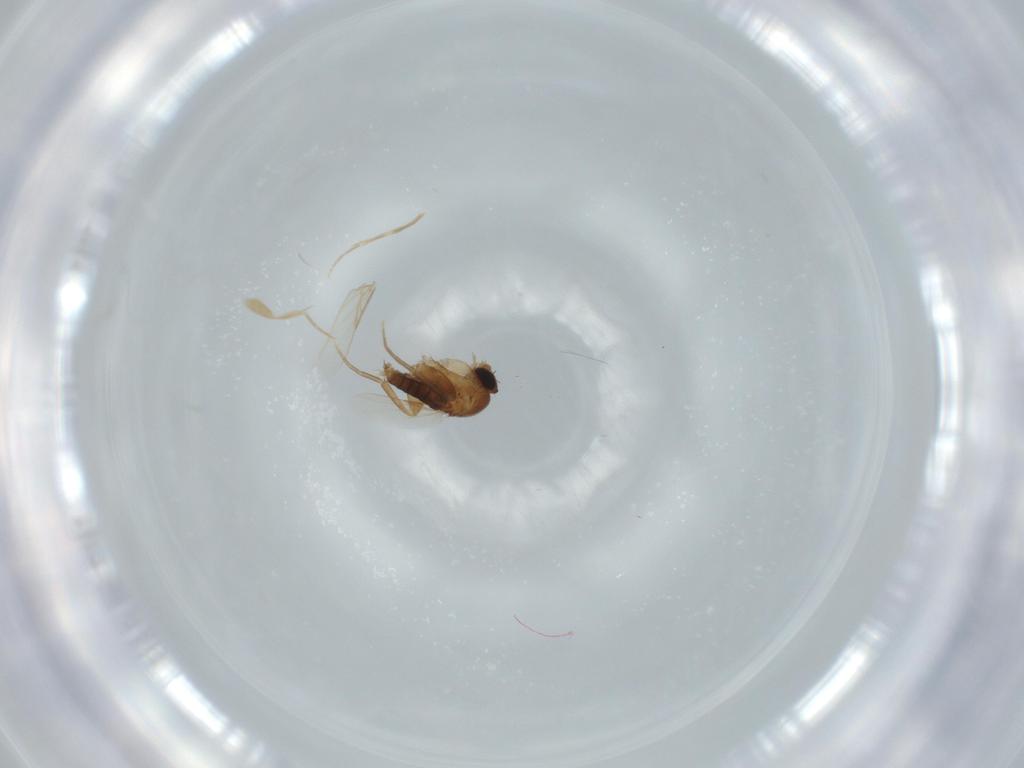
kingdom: Animalia
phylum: Arthropoda
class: Insecta
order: Diptera
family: Phoridae
